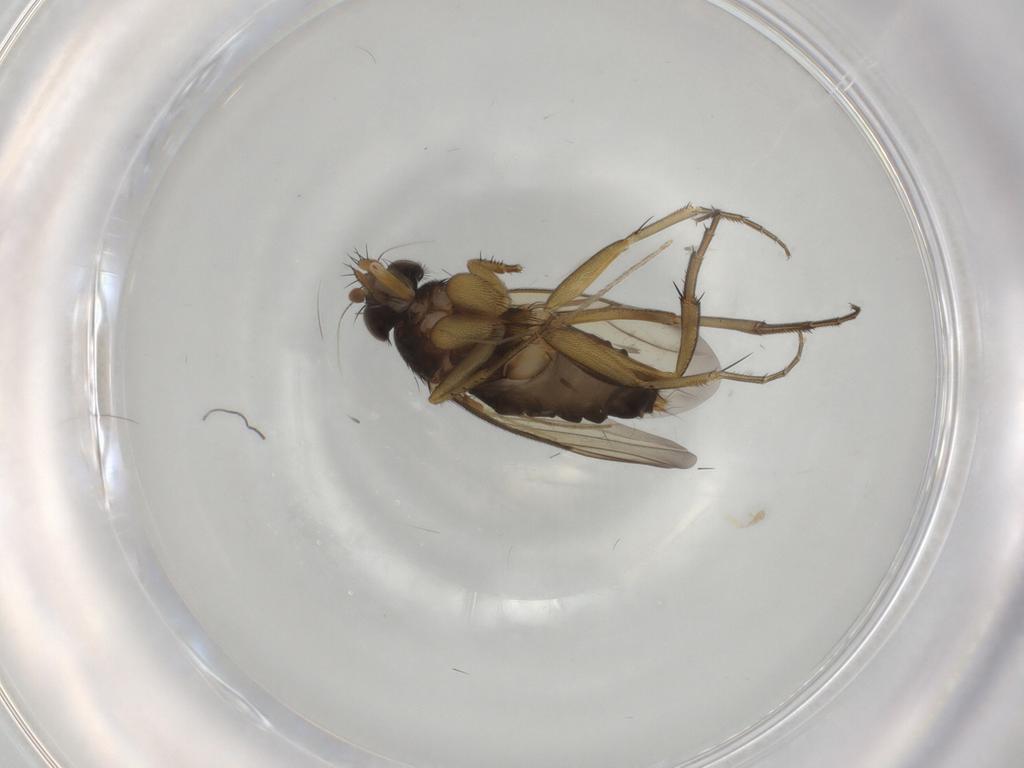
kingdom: Animalia
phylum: Arthropoda
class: Insecta
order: Diptera
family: Phoridae
